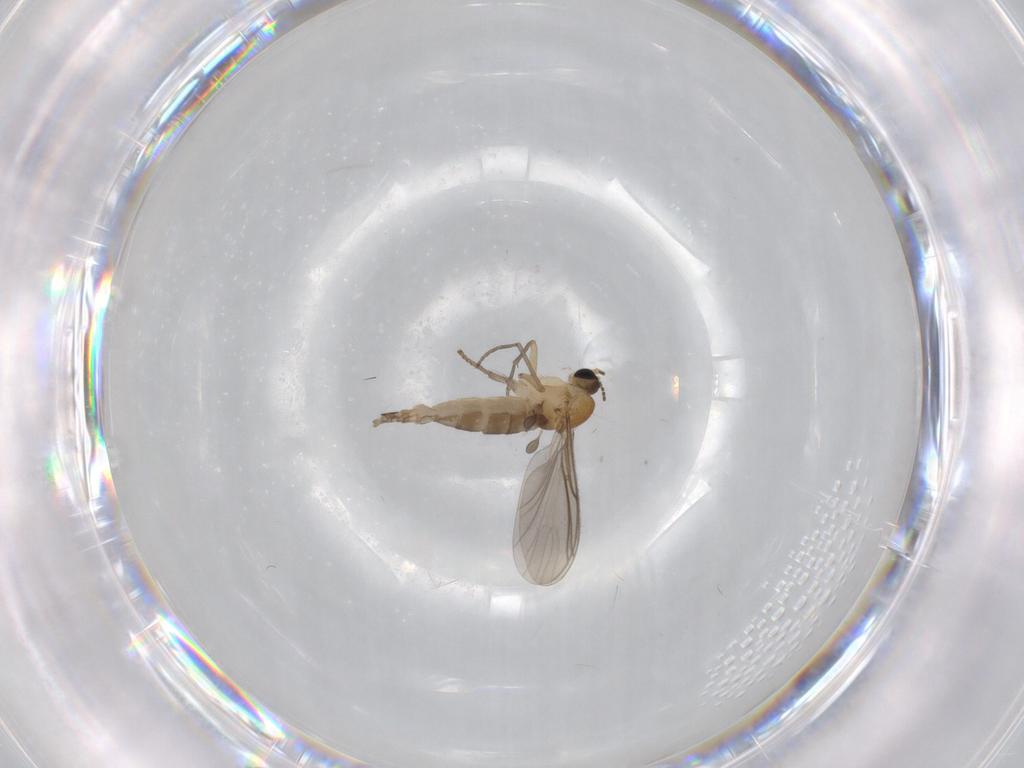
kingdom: Animalia
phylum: Arthropoda
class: Insecta
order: Diptera
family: Sciaridae
